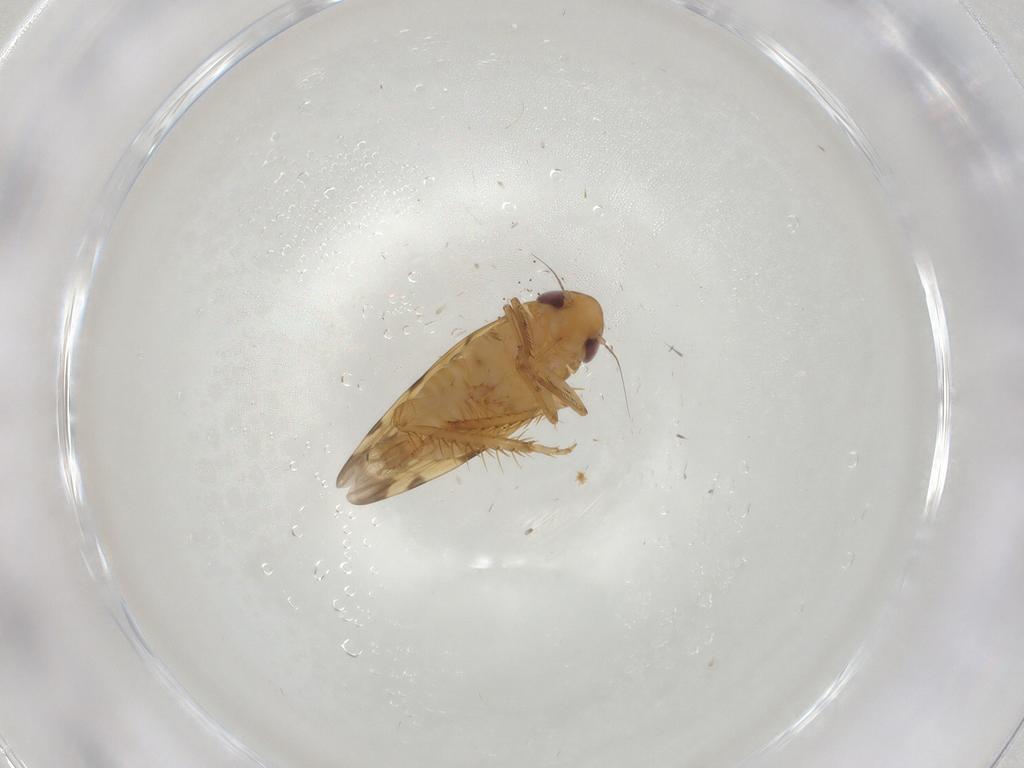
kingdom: Animalia
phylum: Arthropoda
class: Insecta
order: Hemiptera
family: Cicadellidae
